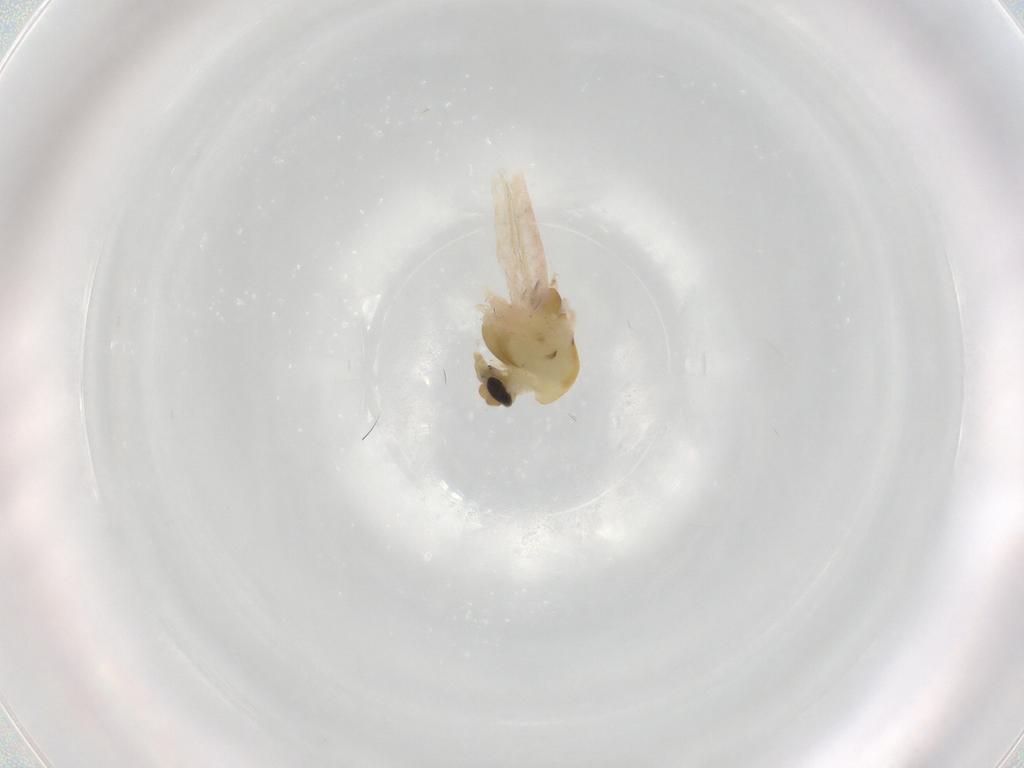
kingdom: Animalia
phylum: Arthropoda
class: Insecta
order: Diptera
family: Chironomidae
